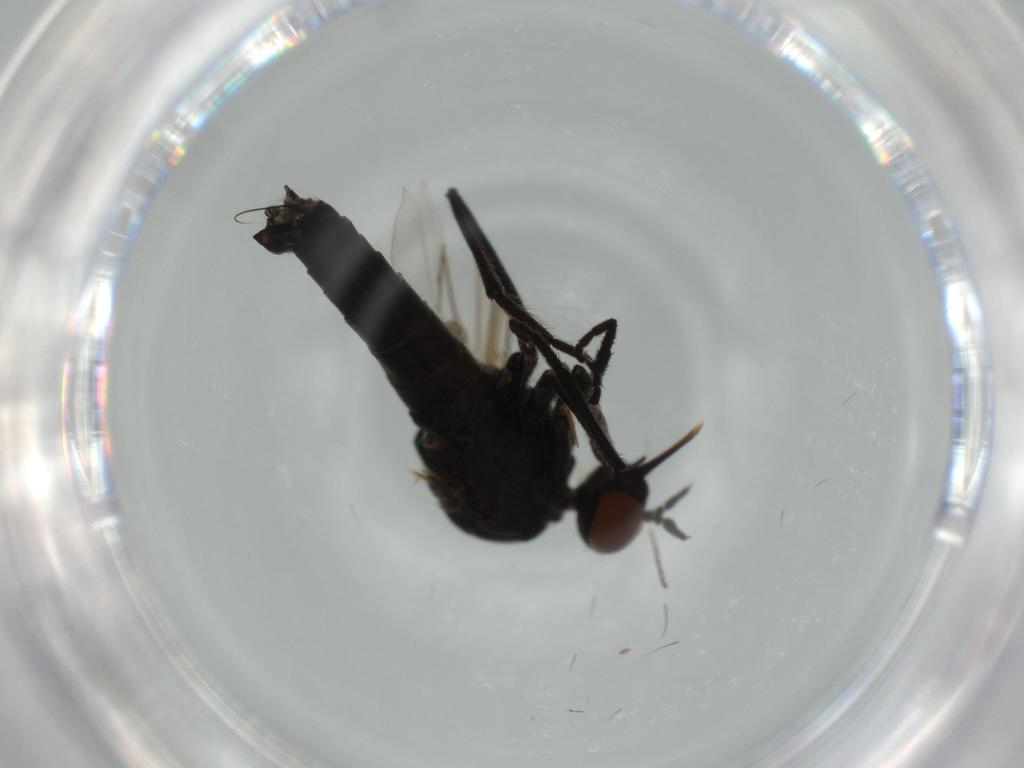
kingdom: Animalia
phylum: Arthropoda
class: Insecta
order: Diptera
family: Empididae
